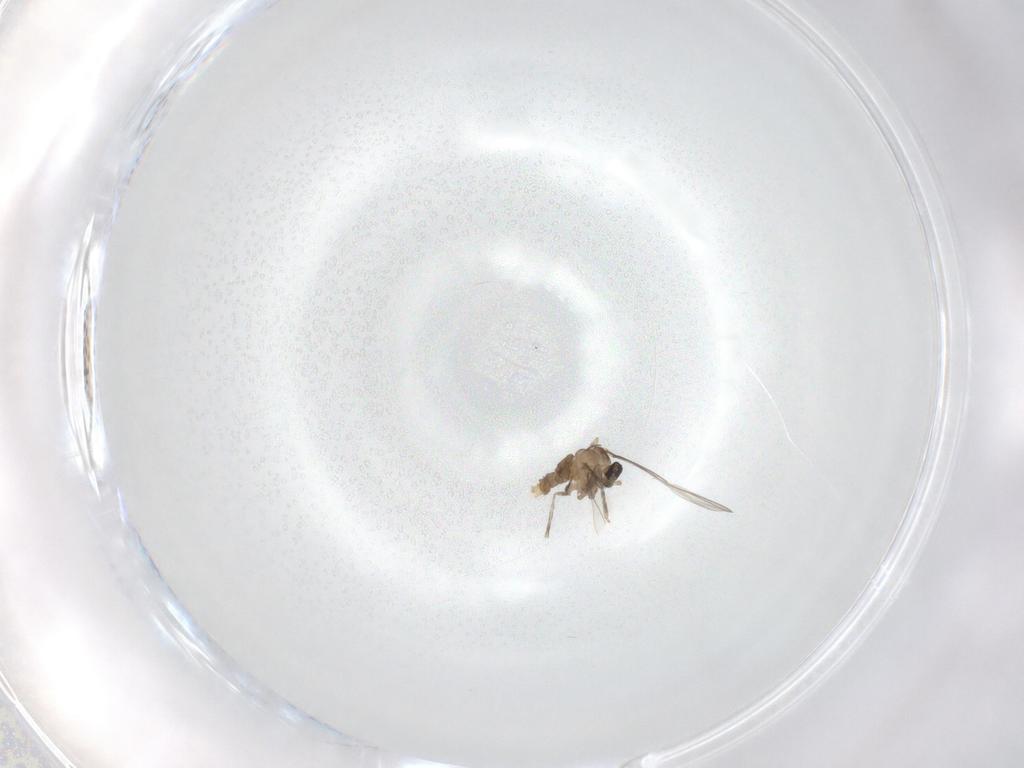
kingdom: Animalia
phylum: Arthropoda
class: Insecta
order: Diptera
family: Cecidomyiidae
